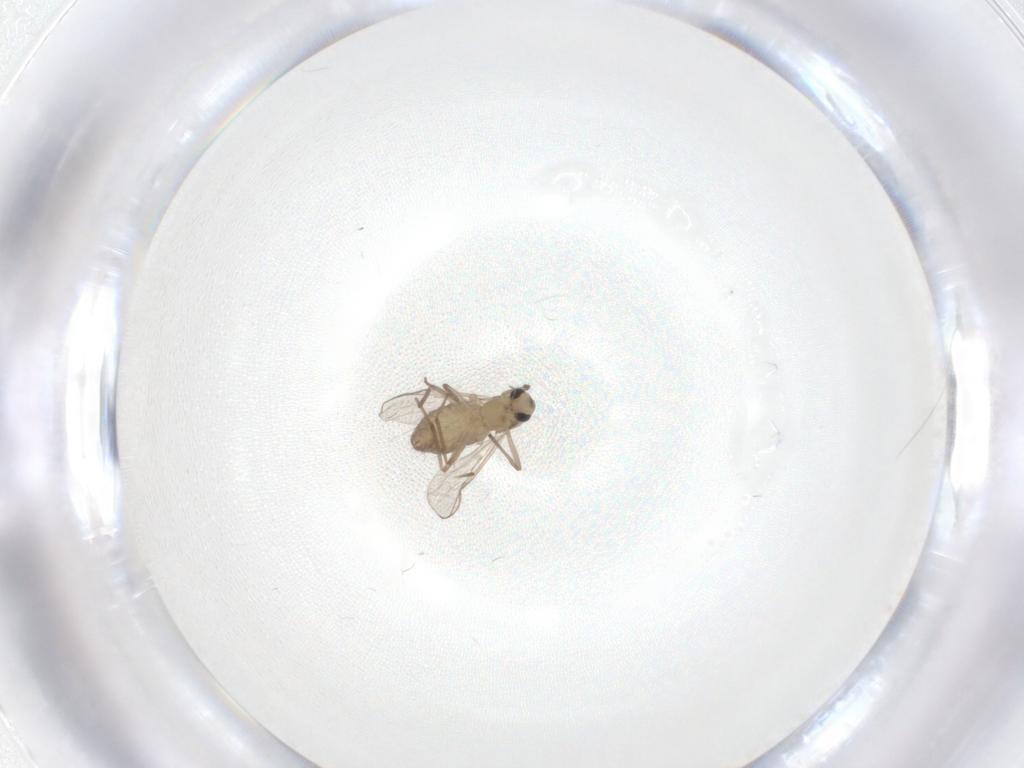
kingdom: Animalia
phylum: Arthropoda
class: Insecta
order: Diptera
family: Chironomidae
